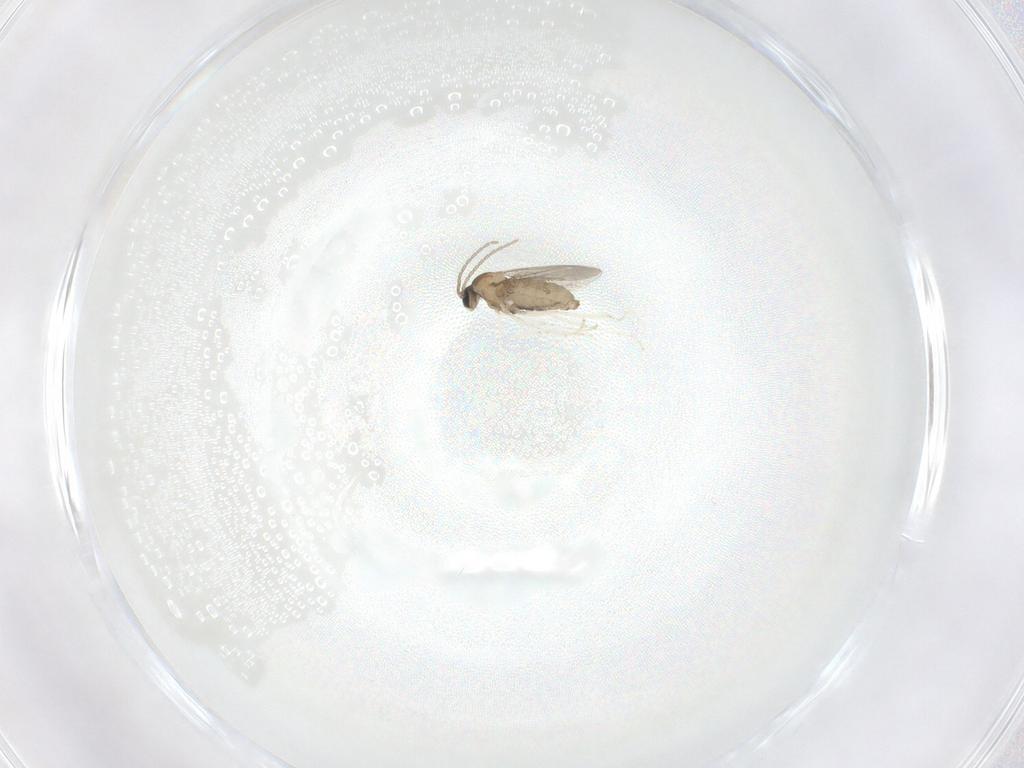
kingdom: Animalia
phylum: Arthropoda
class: Insecta
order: Diptera
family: Cecidomyiidae
